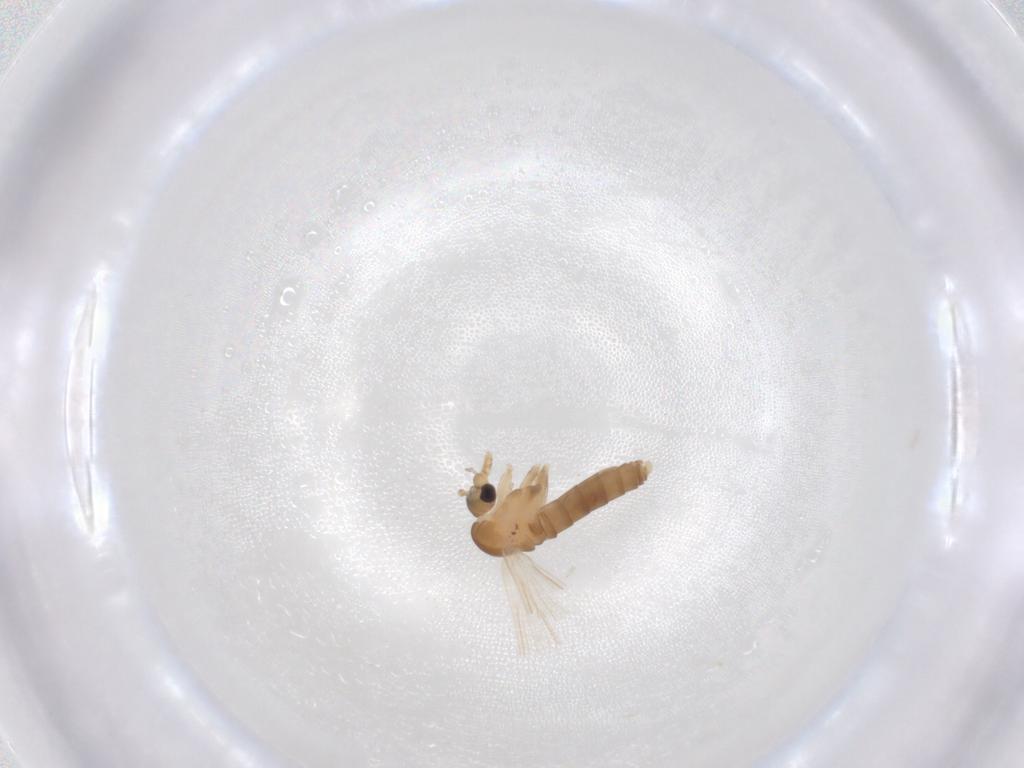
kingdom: Animalia
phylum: Arthropoda
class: Insecta
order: Diptera
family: Psychodidae
